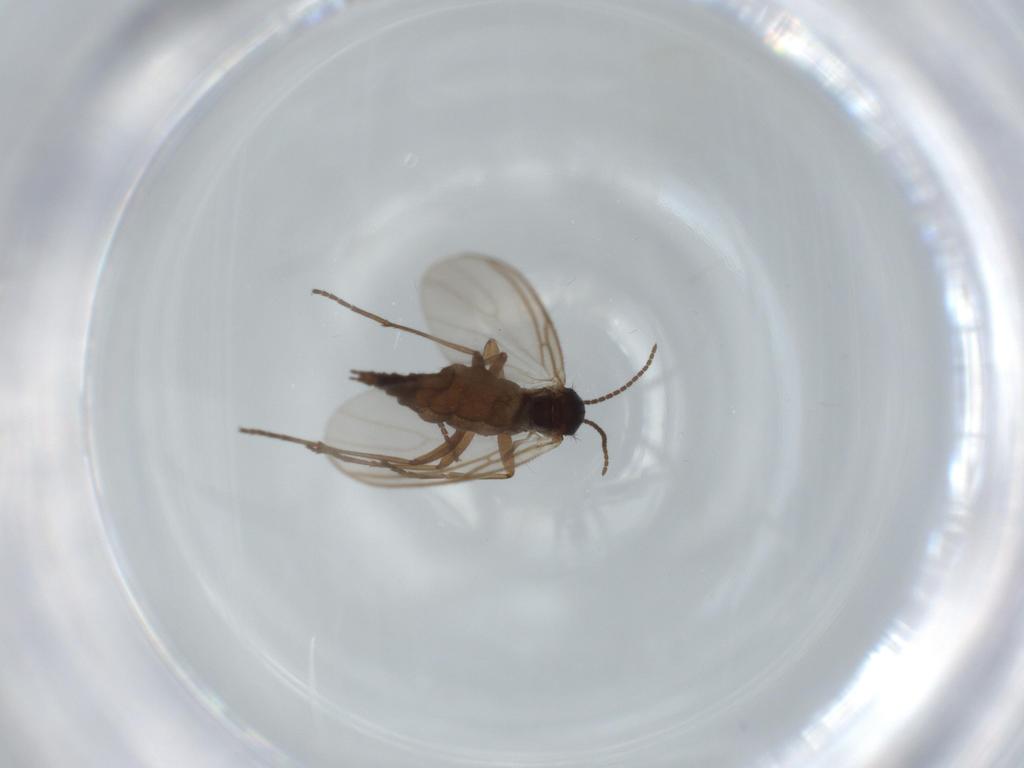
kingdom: Animalia
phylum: Arthropoda
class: Insecta
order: Diptera
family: Sciaridae
